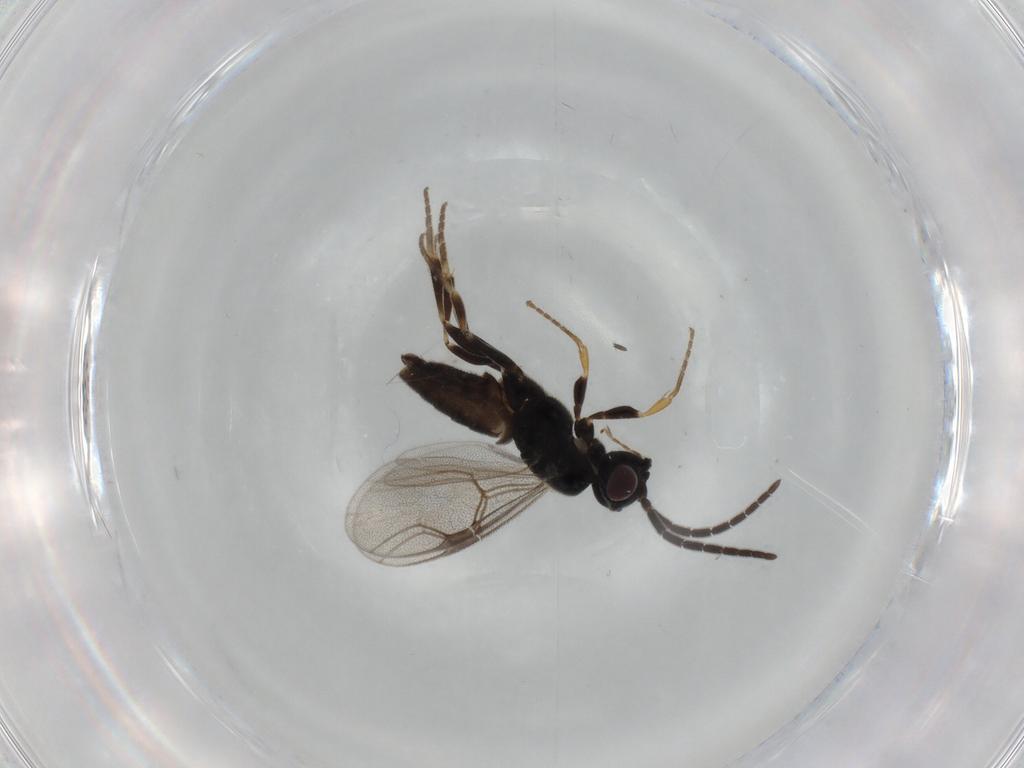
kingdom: Animalia
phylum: Arthropoda
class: Insecta
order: Hymenoptera
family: Dryinidae
